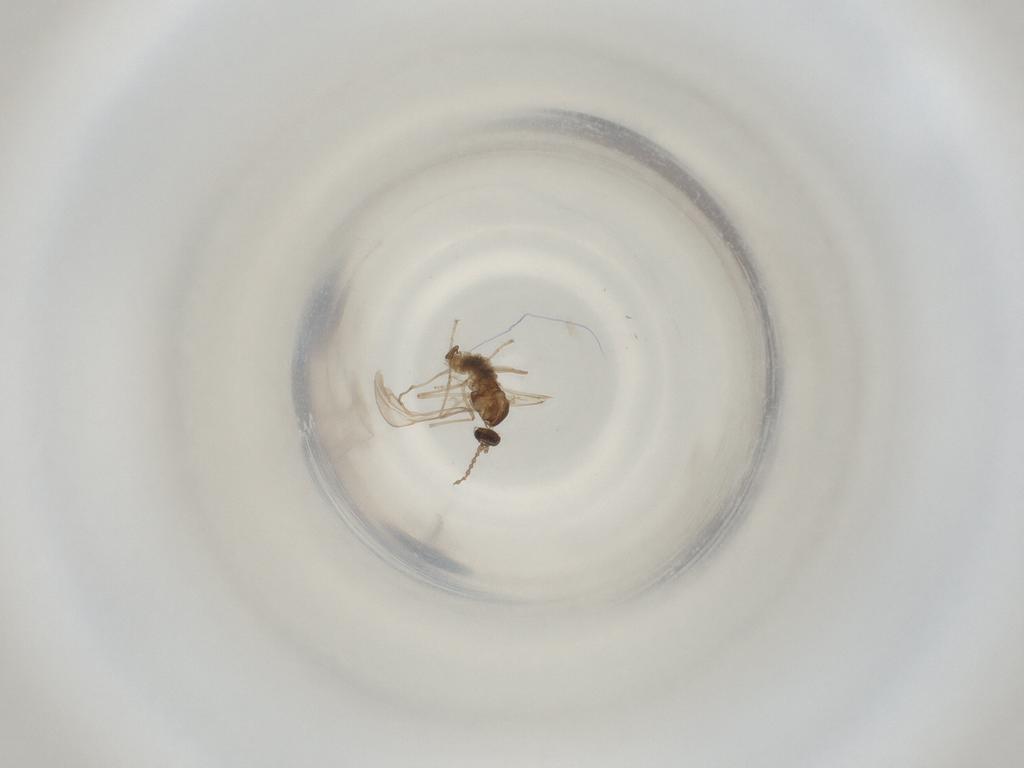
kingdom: Animalia
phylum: Arthropoda
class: Insecta
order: Diptera
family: Cecidomyiidae
